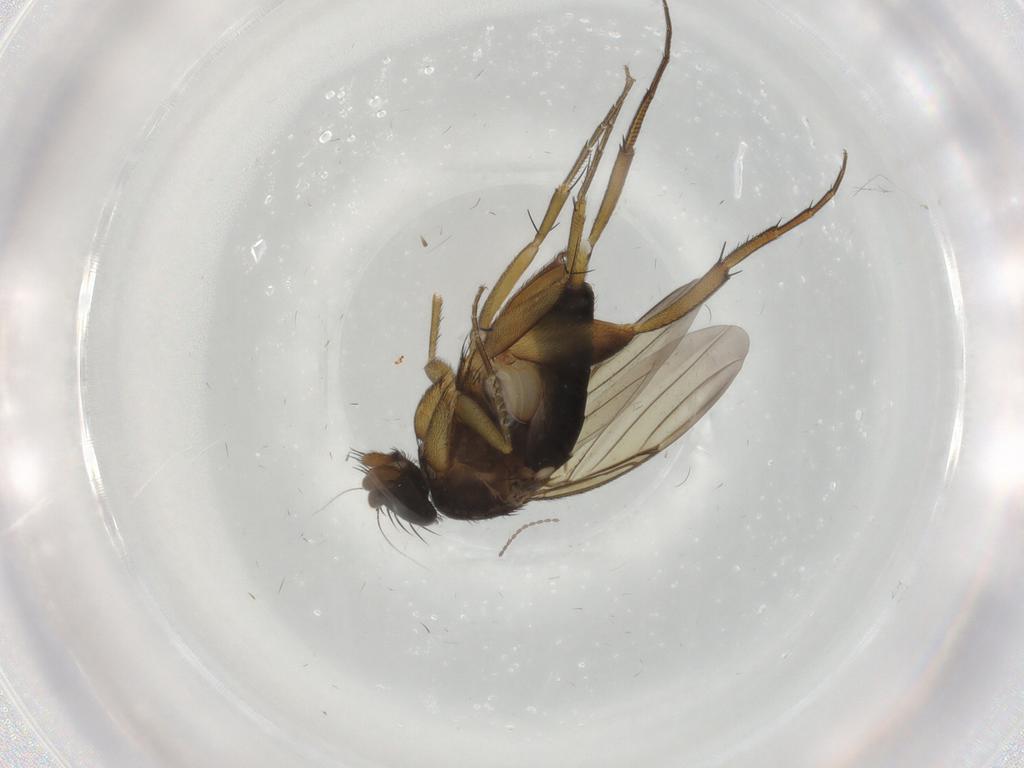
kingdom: Animalia
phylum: Arthropoda
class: Insecta
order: Diptera
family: Phoridae
